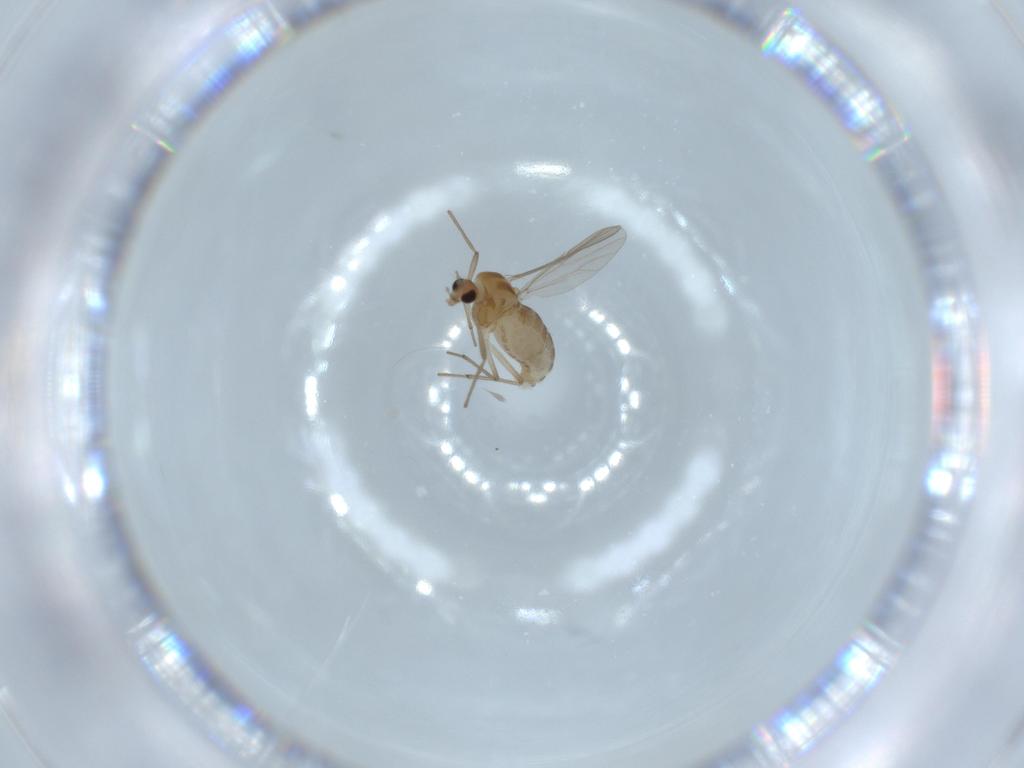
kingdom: Animalia
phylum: Arthropoda
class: Insecta
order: Diptera
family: Chironomidae
